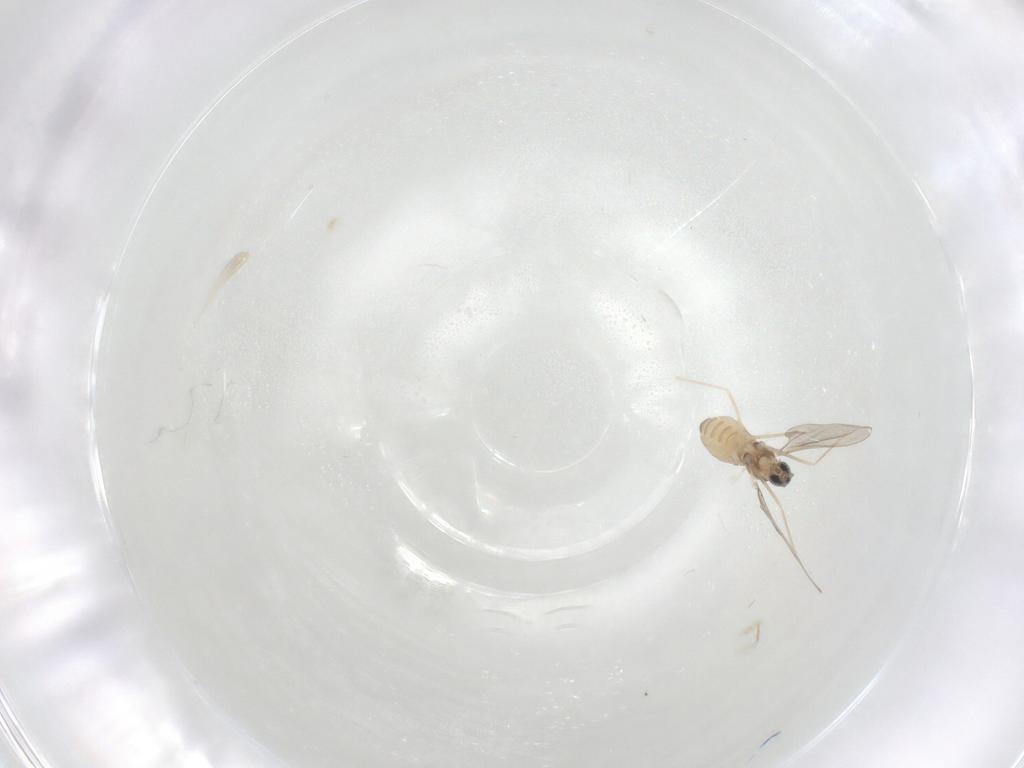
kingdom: Animalia
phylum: Arthropoda
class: Insecta
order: Diptera
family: Cecidomyiidae
